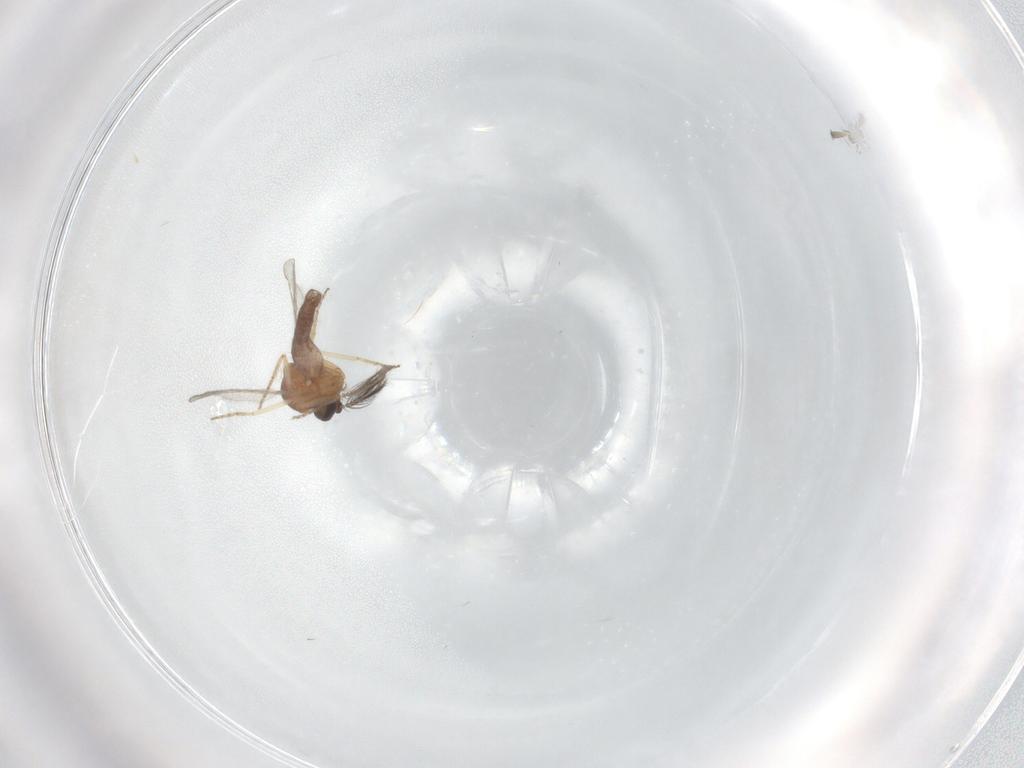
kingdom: Animalia
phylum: Arthropoda
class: Insecta
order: Diptera
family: Ceratopogonidae
